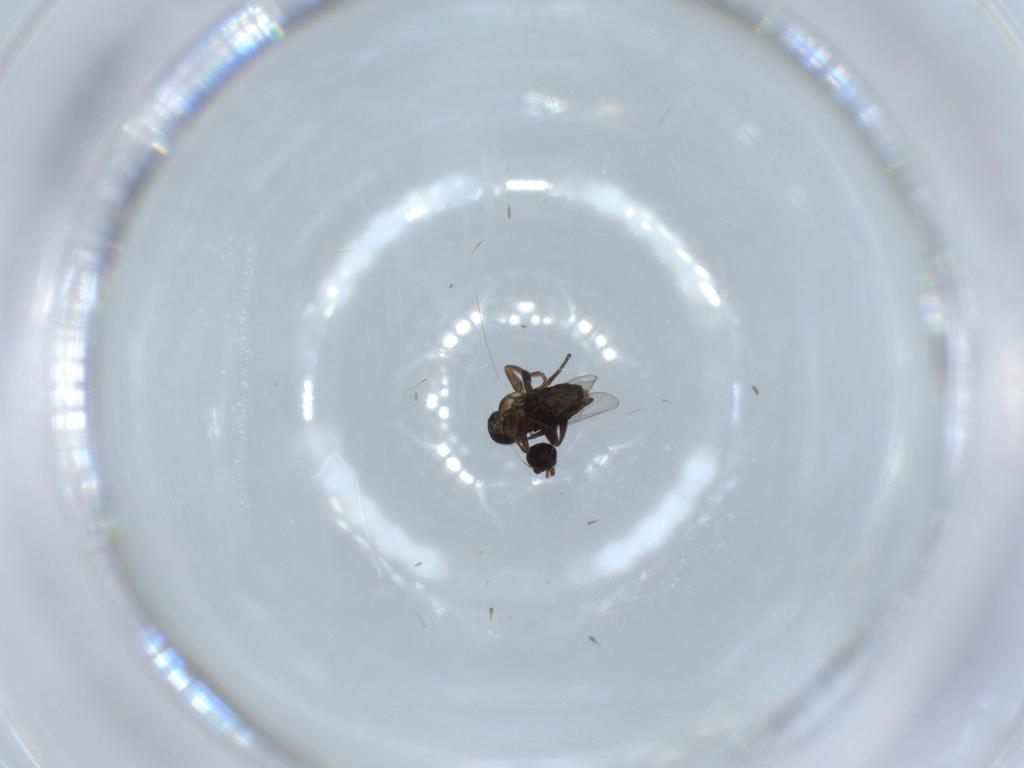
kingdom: Animalia
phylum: Arthropoda
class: Insecta
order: Diptera
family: Phoridae
